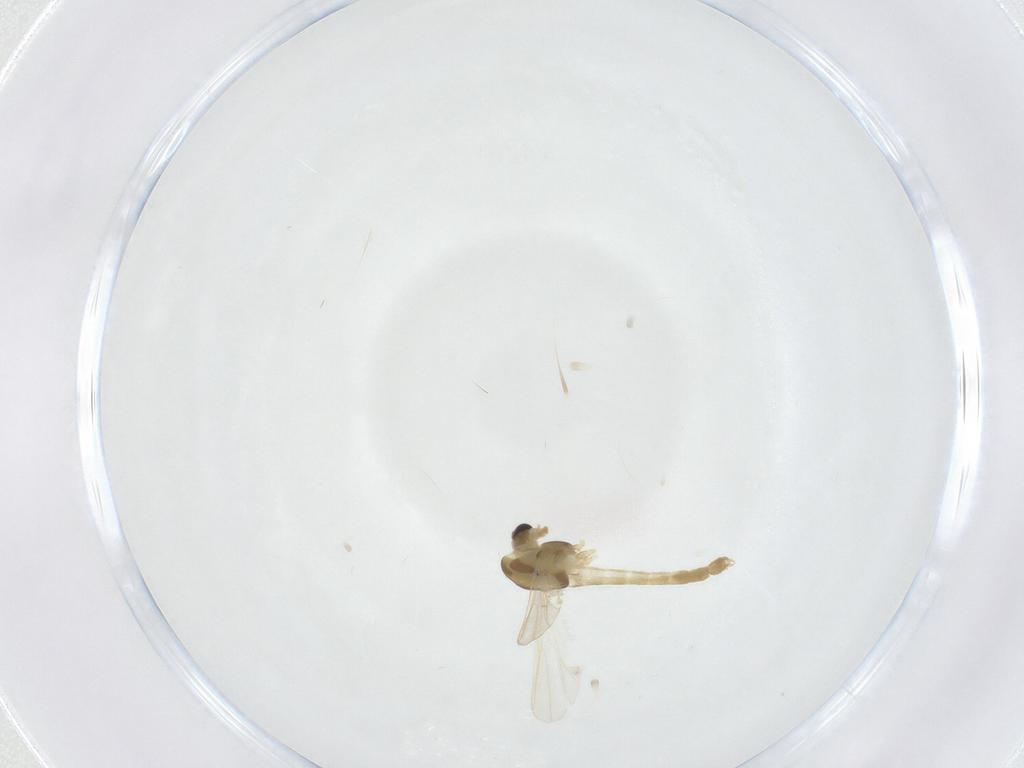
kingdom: Animalia
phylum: Arthropoda
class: Insecta
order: Diptera
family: Chironomidae
